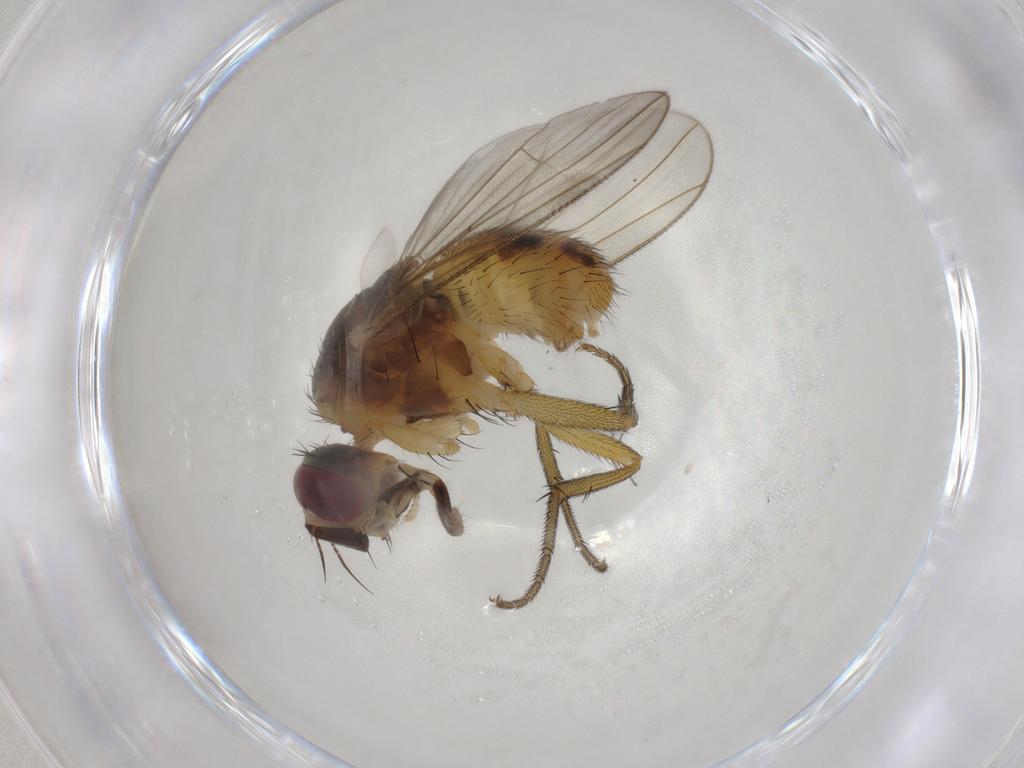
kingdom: Animalia
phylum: Arthropoda
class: Insecta
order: Diptera
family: Muscidae
